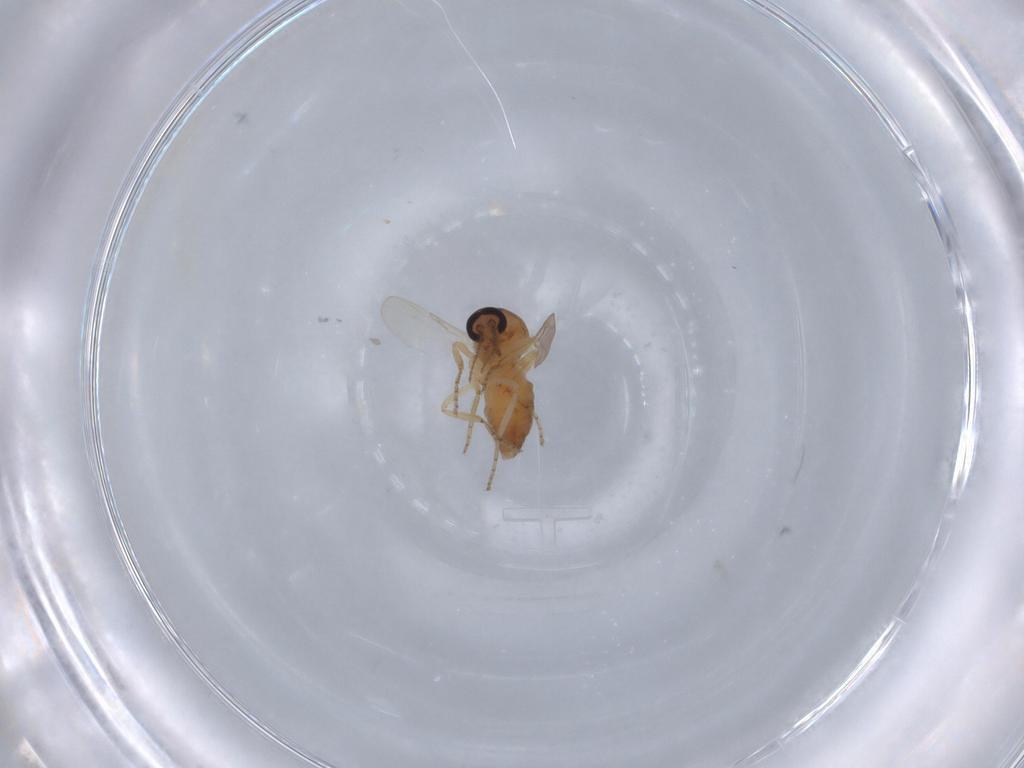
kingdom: Animalia
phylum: Arthropoda
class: Insecta
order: Diptera
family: Ceratopogonidae
